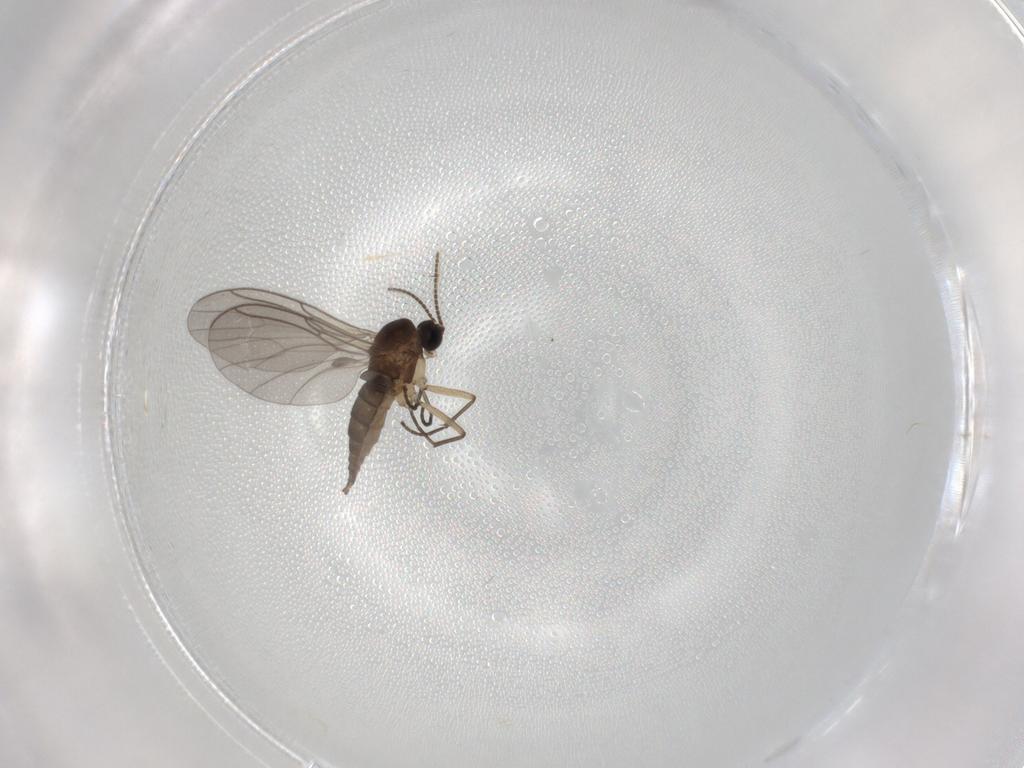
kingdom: Animalia
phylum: Arthropoda
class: Insecta
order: Diptera
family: Sciaridae
